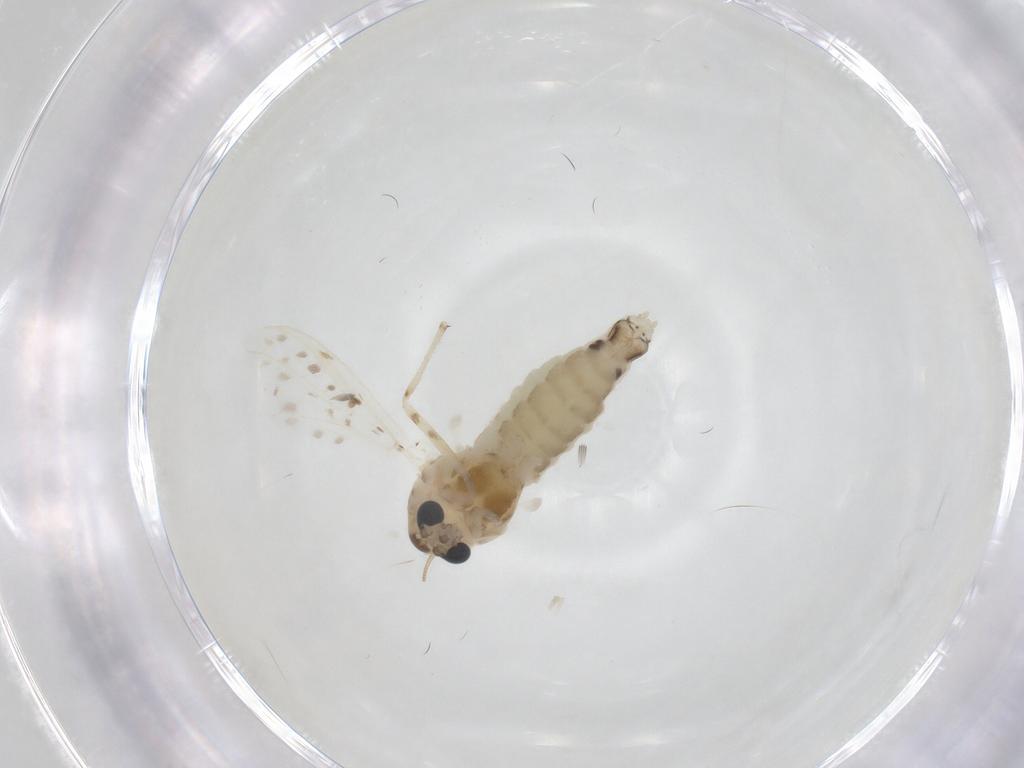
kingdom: Animalia
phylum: Arthropoda
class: Insecta
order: Diptera
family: Chironomidae
